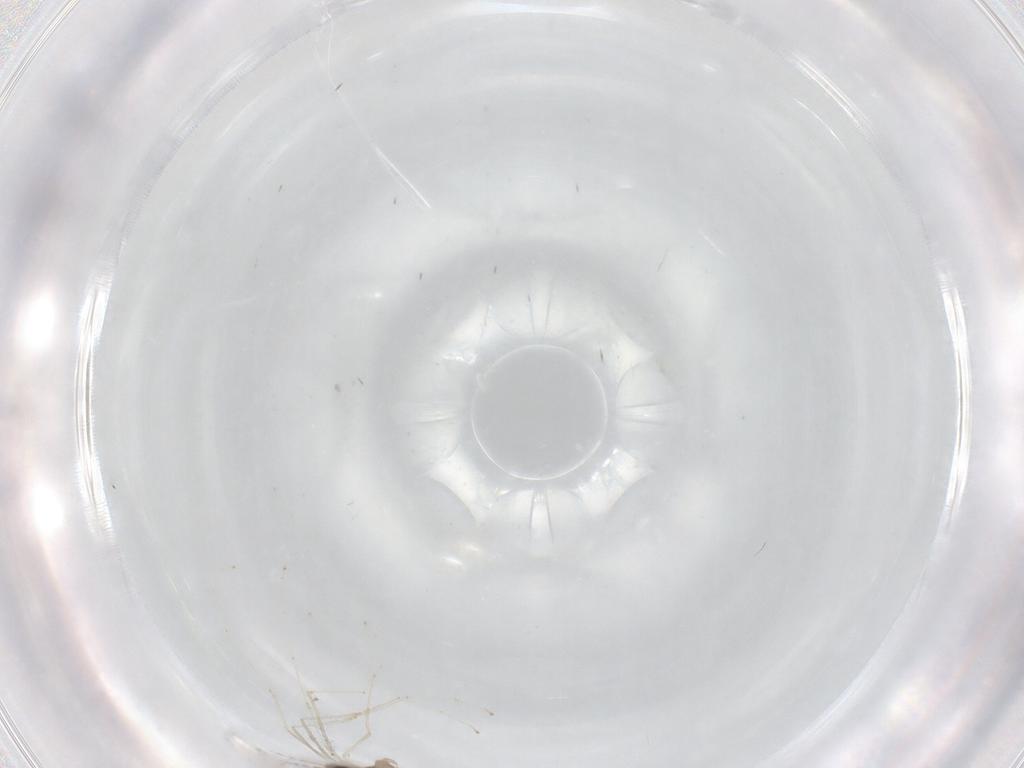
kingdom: Animalia
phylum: Arthropoda
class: Insecta
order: Diptera
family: Cecidomyiidae
